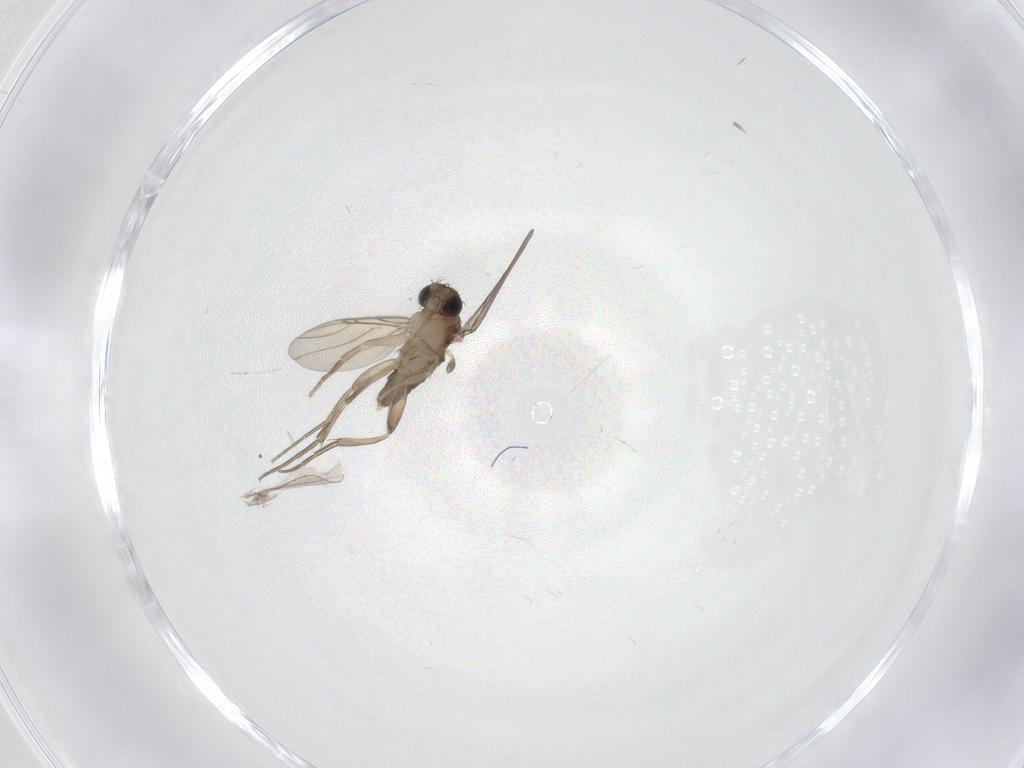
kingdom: Animalia
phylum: Arthropoda
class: Insecta
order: Diptera
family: Phoridae
